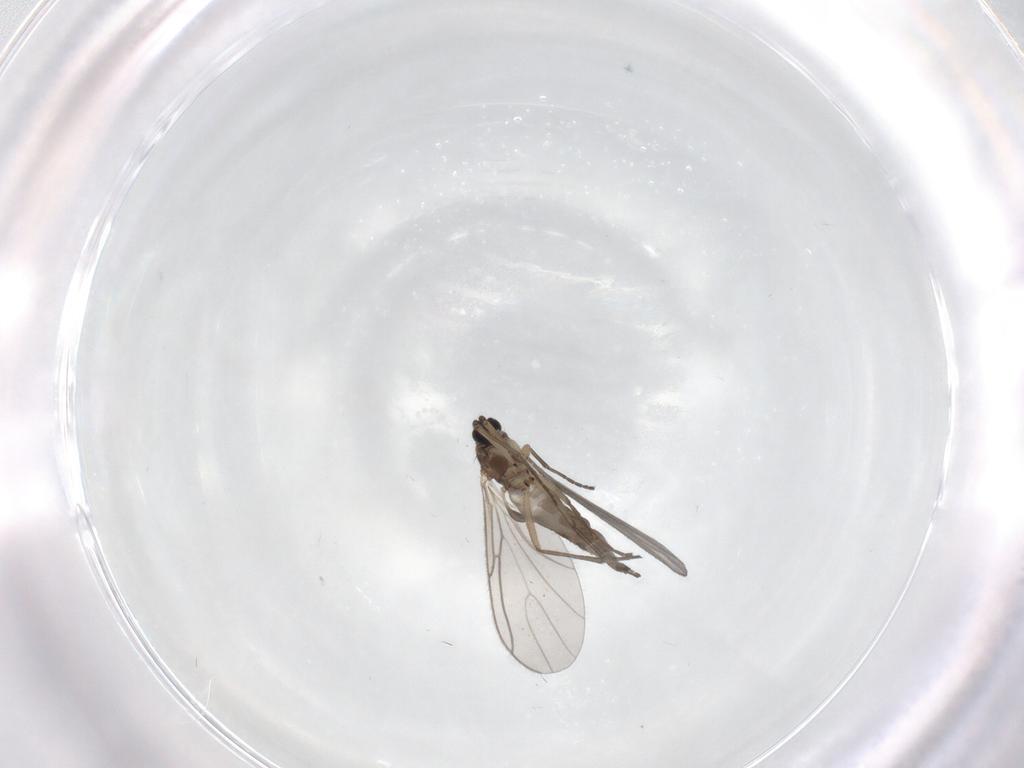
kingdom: Animalia
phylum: Arthropoda
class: Insecta
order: Diptera
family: Sciaridae
